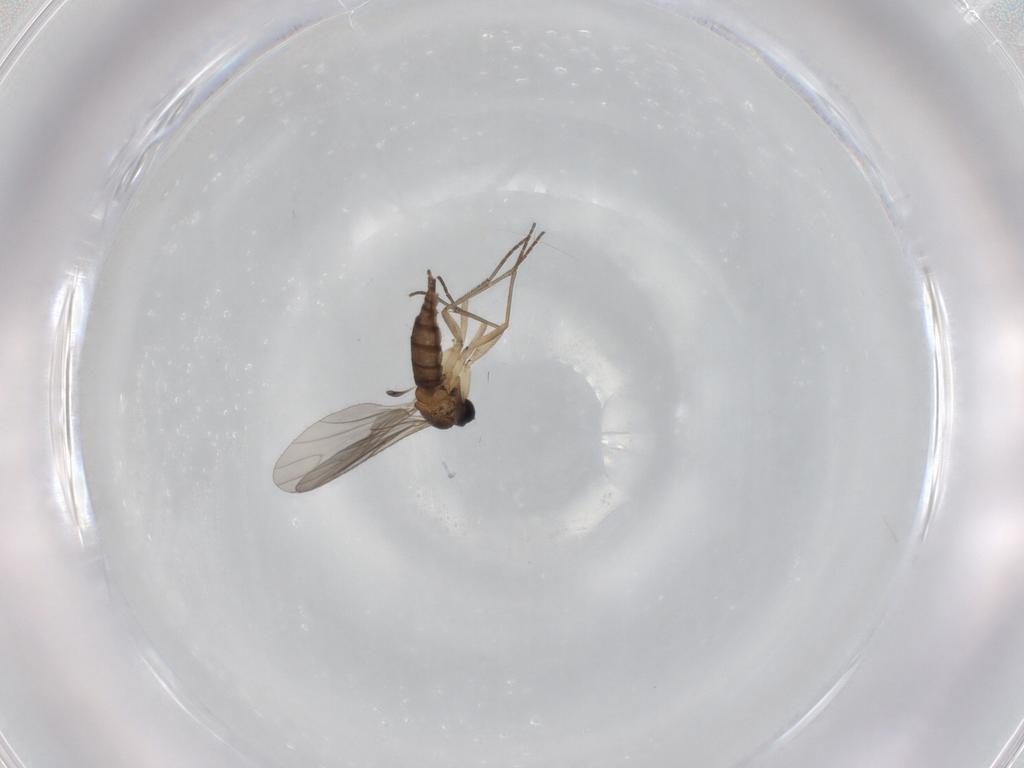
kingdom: Animalia
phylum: Arthropoda
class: Insecta
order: Diptera
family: Sciaridae
